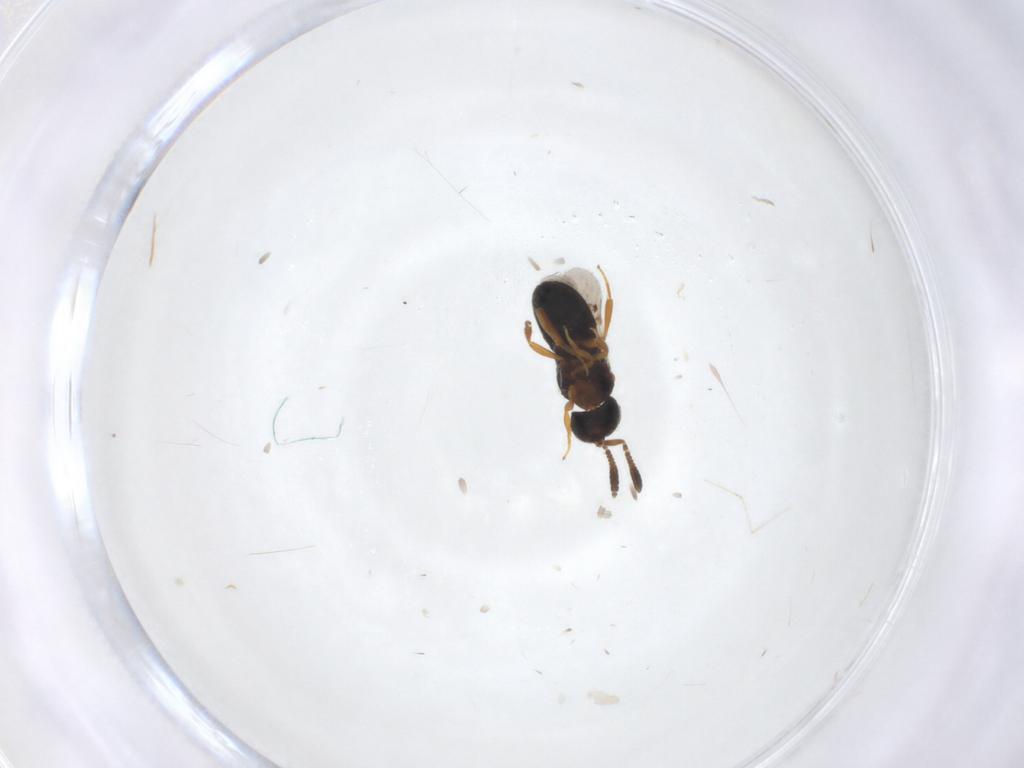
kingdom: Animalia
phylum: Arthropoda
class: Insecta
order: Hymenoptera
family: Scelionidae
